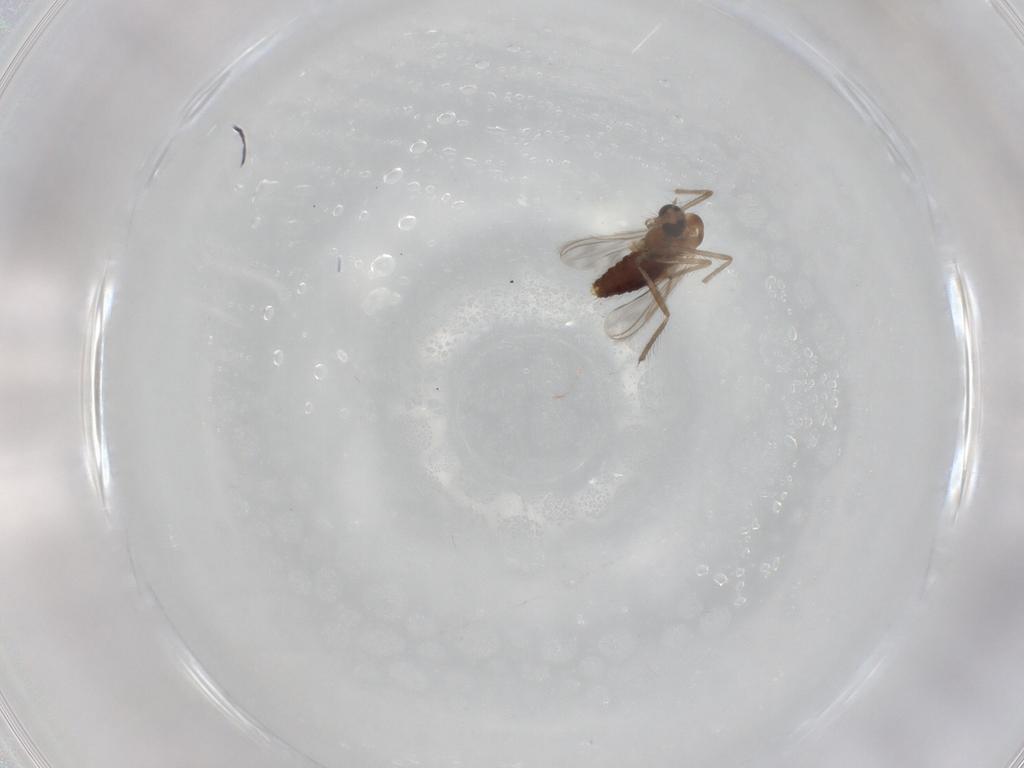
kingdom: Animalia
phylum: Arthropoda
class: Insecta
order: Diptera
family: Chironomidae
